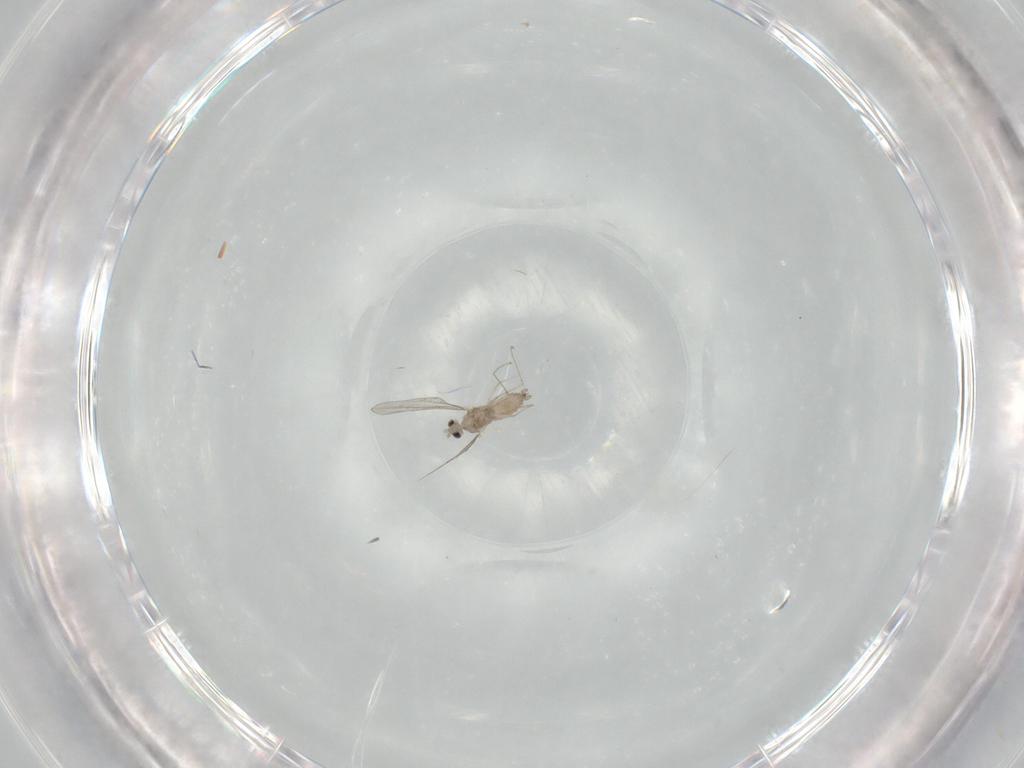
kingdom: Animalia
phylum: Arthropoda
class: Insecta
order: Diptera
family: Cecidomyiidae
